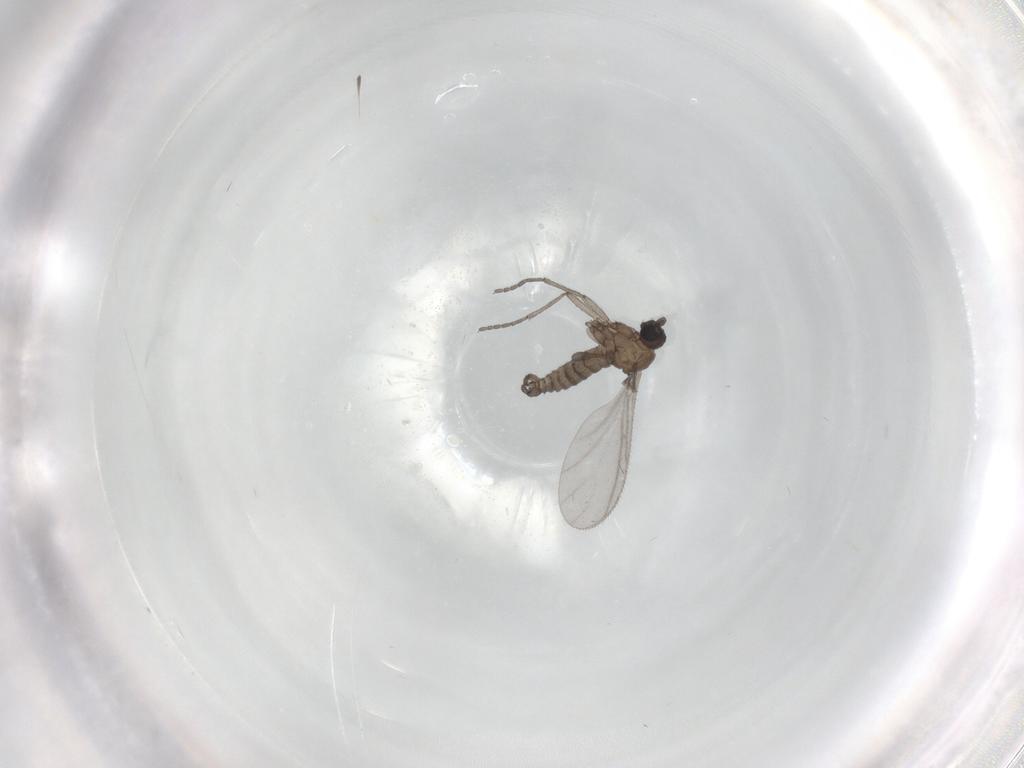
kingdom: Animalia
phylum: Arthropoda
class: Insecta
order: Diptera
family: Sciaridae
